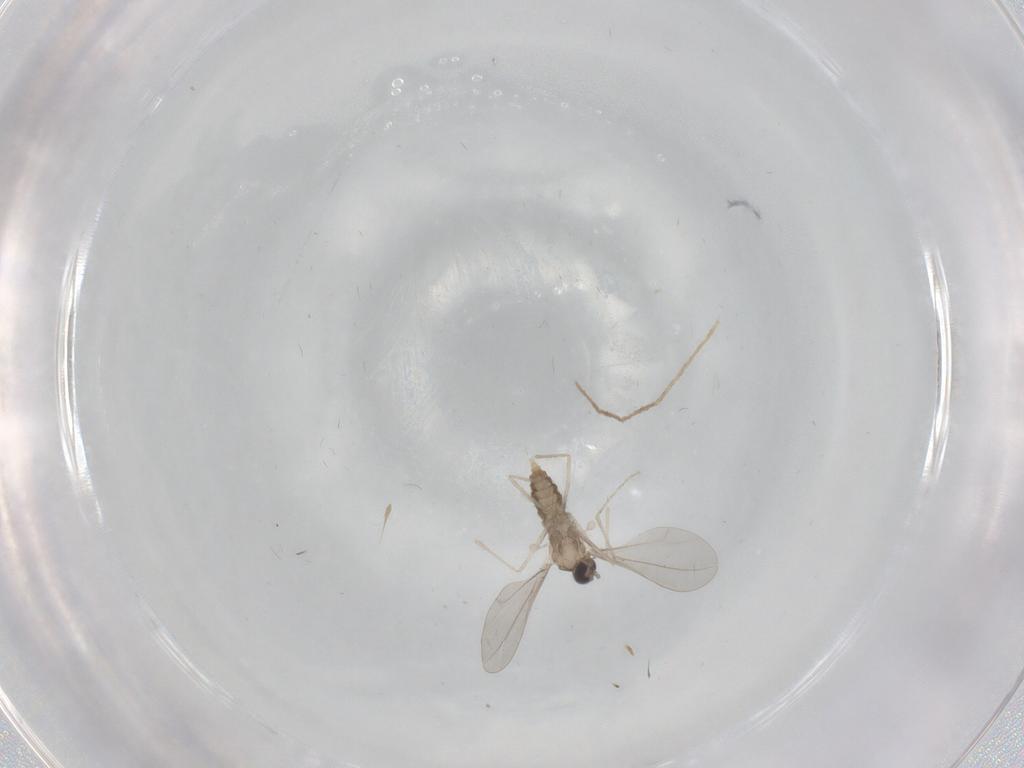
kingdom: Animalia
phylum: Arthropoda
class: Insecta
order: Diptera
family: Cecidomyiidae
